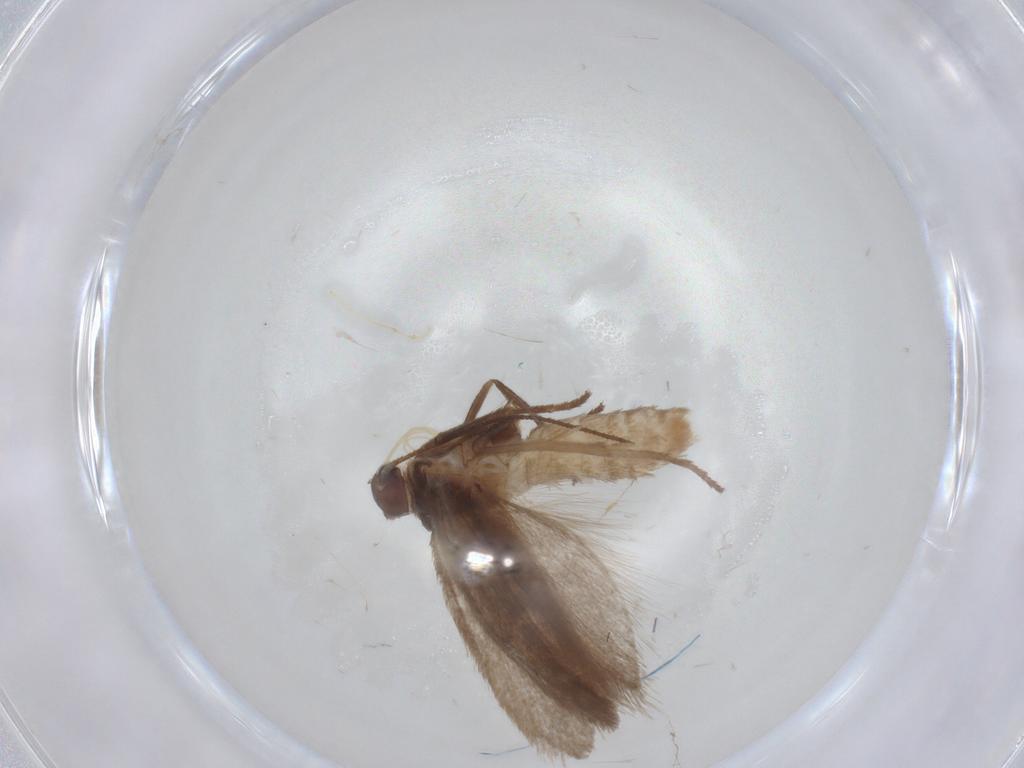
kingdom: Animalia
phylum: Arthropoda
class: Insecta
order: Lepidoptera
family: Limacodidae
